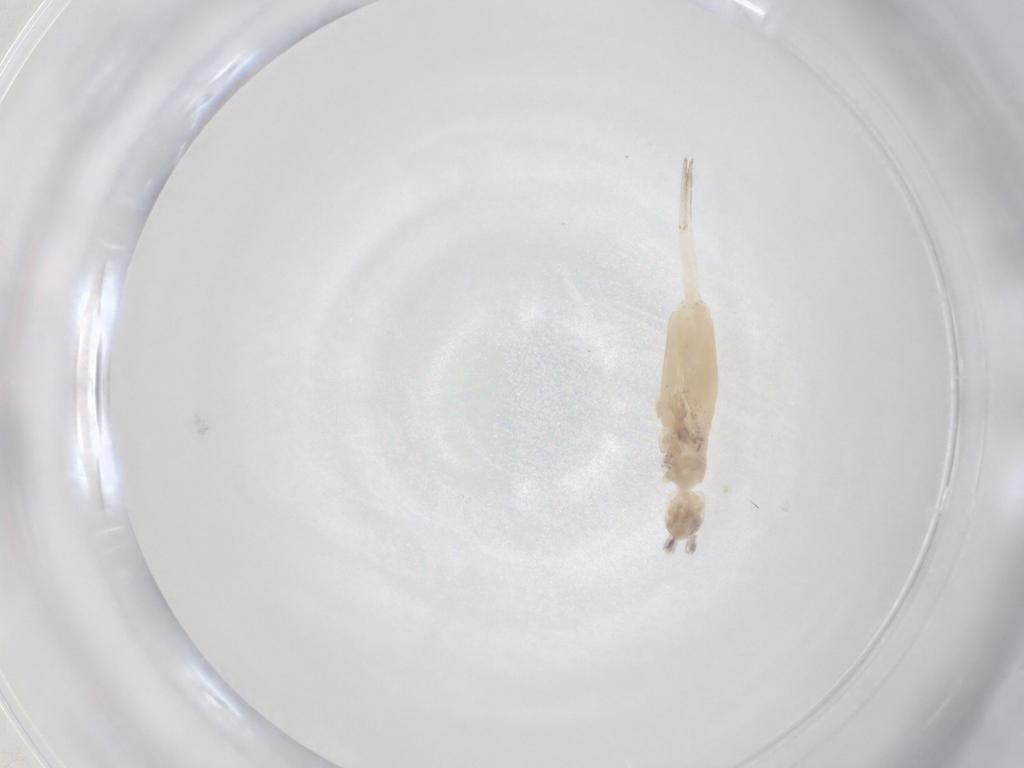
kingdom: Animalia
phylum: Arthropoda
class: Collembola
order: Entomobryomorpha
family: Entomobryidae
